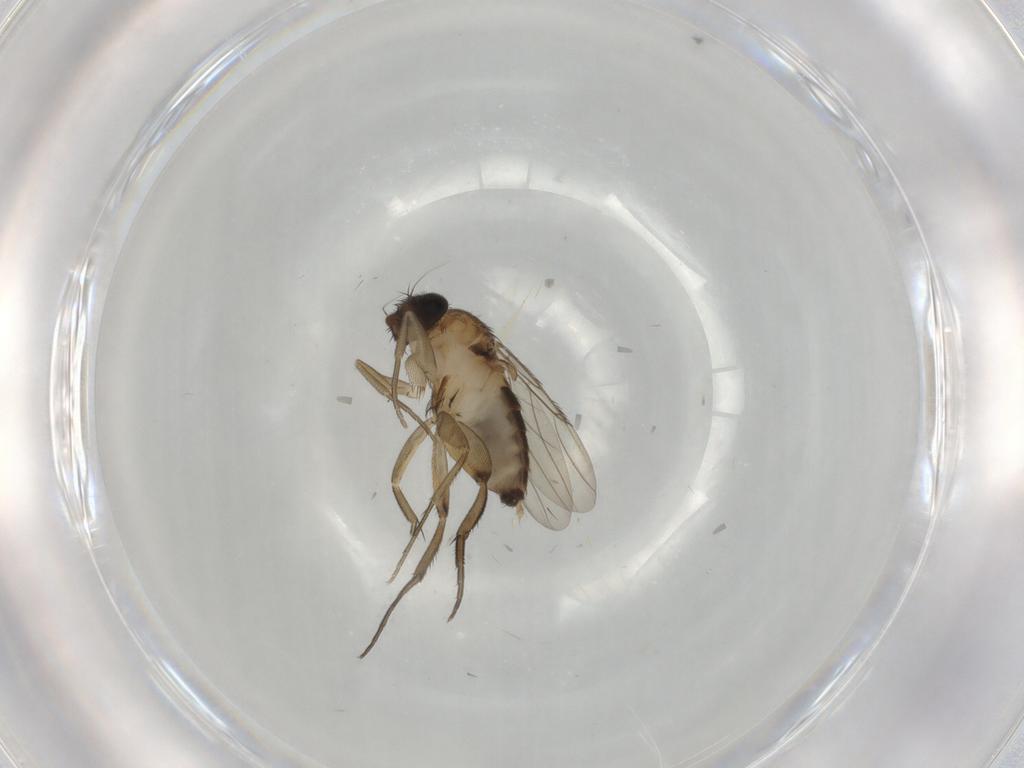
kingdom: Animalia
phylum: Arthropoda
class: Insecta
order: Diptera
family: Phoridae
